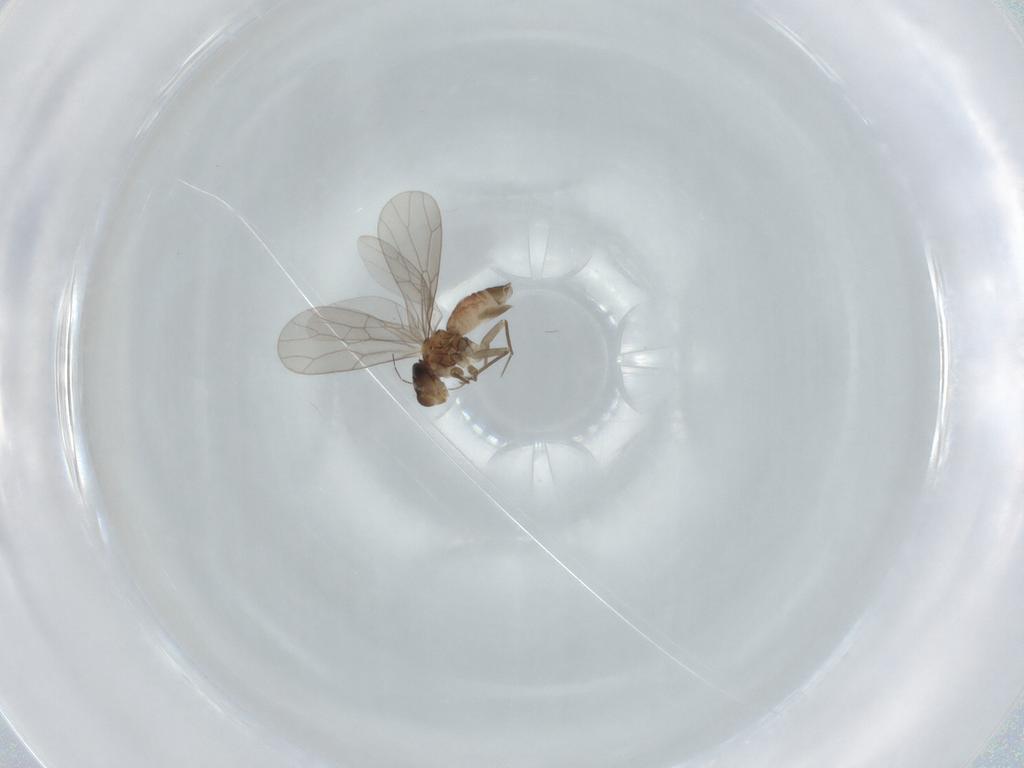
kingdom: Animalia
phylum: Arthropoda
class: Insecta
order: Psocodea
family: Lepidopsocidae
